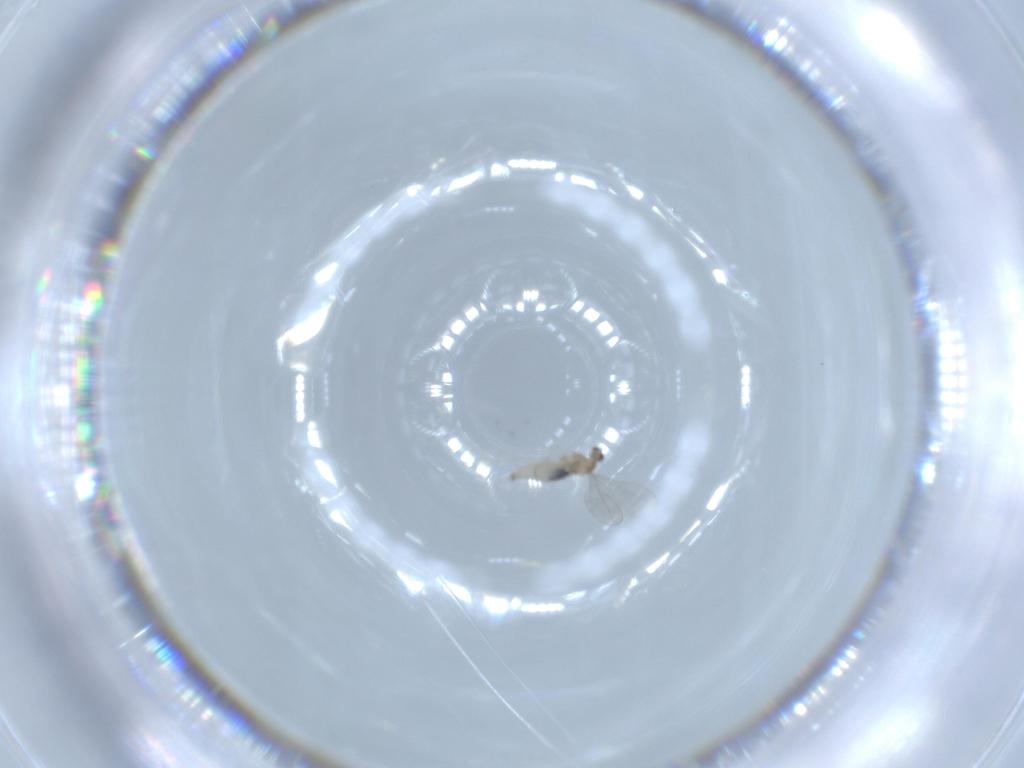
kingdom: Animalia
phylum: Arthropoda
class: Insecta
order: Diptera
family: Cecidomyiidae
